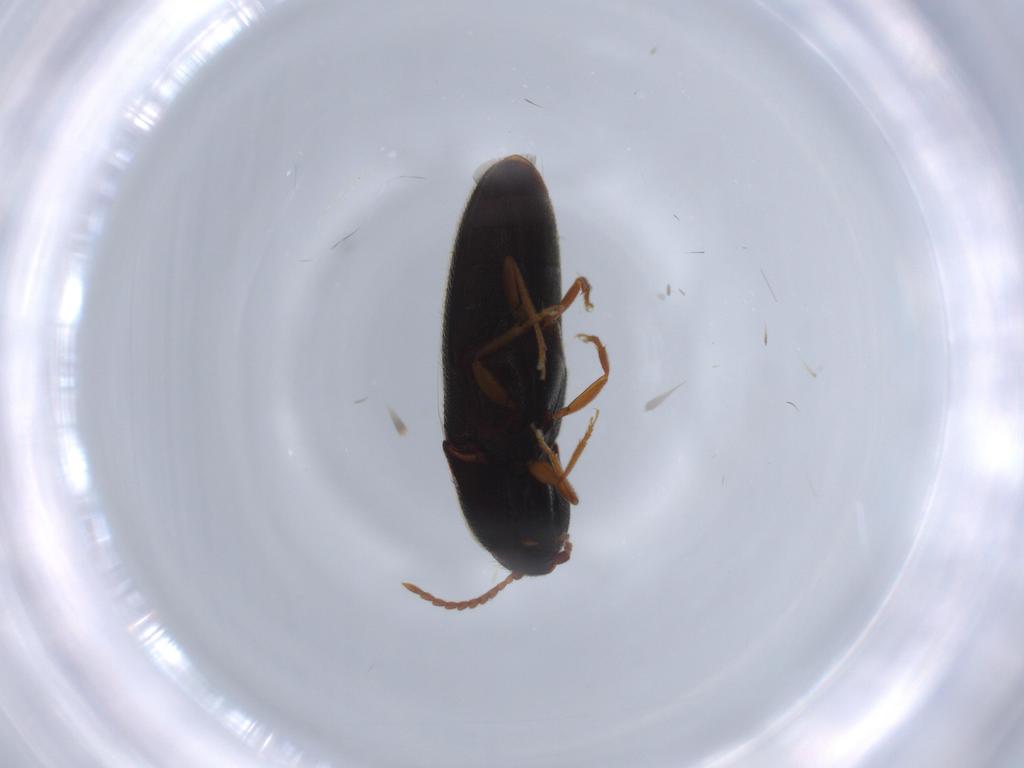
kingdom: Animalia
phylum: Arthropoda
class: Insecta
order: Coleoptera
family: Elateridae
